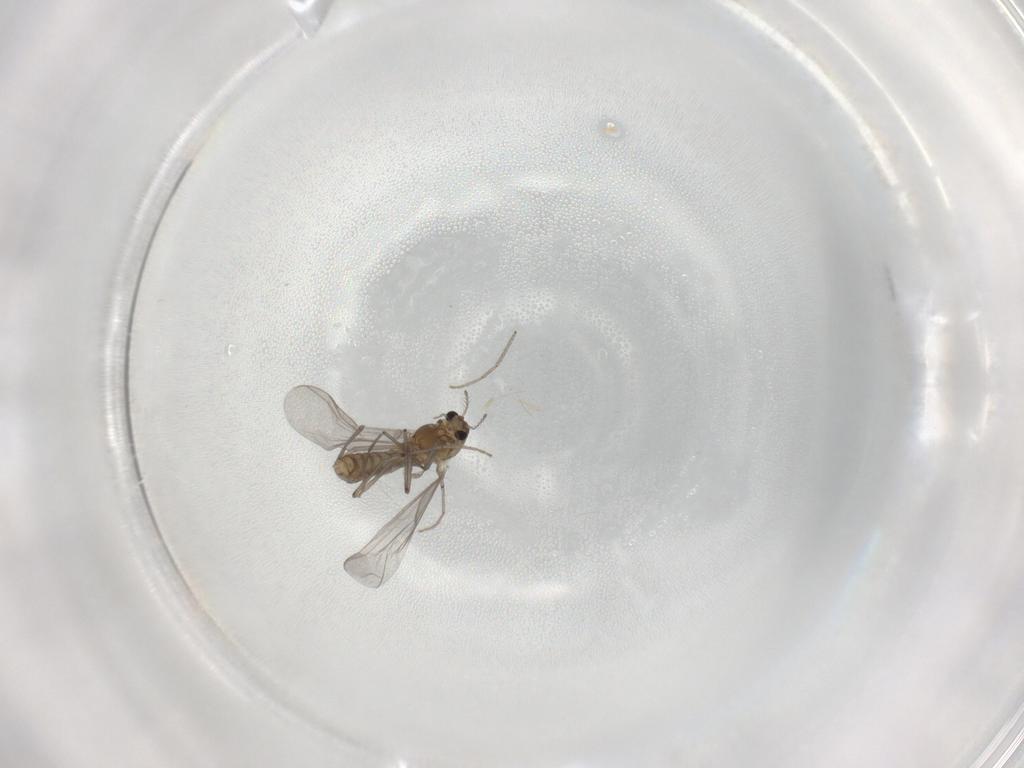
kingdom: Animalia
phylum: Arthropoda
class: Insecta
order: Diptera
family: Chironomidae
